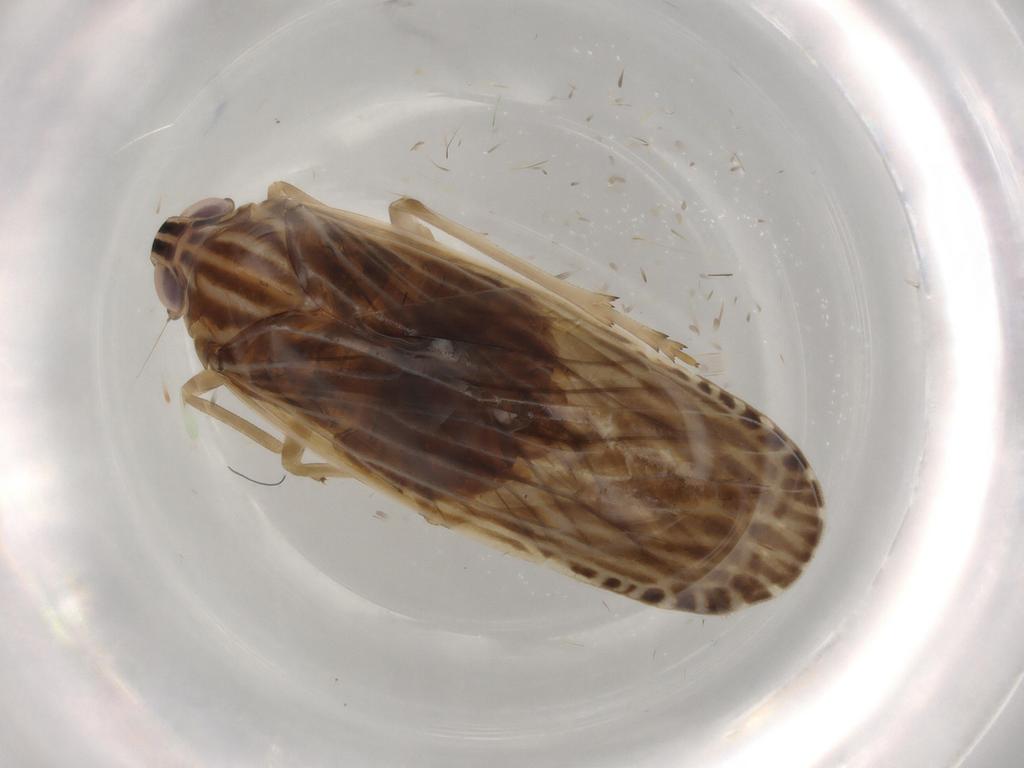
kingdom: Animalia
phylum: Arthropoda
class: Insecta
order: Hemiptera
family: Achilidae
